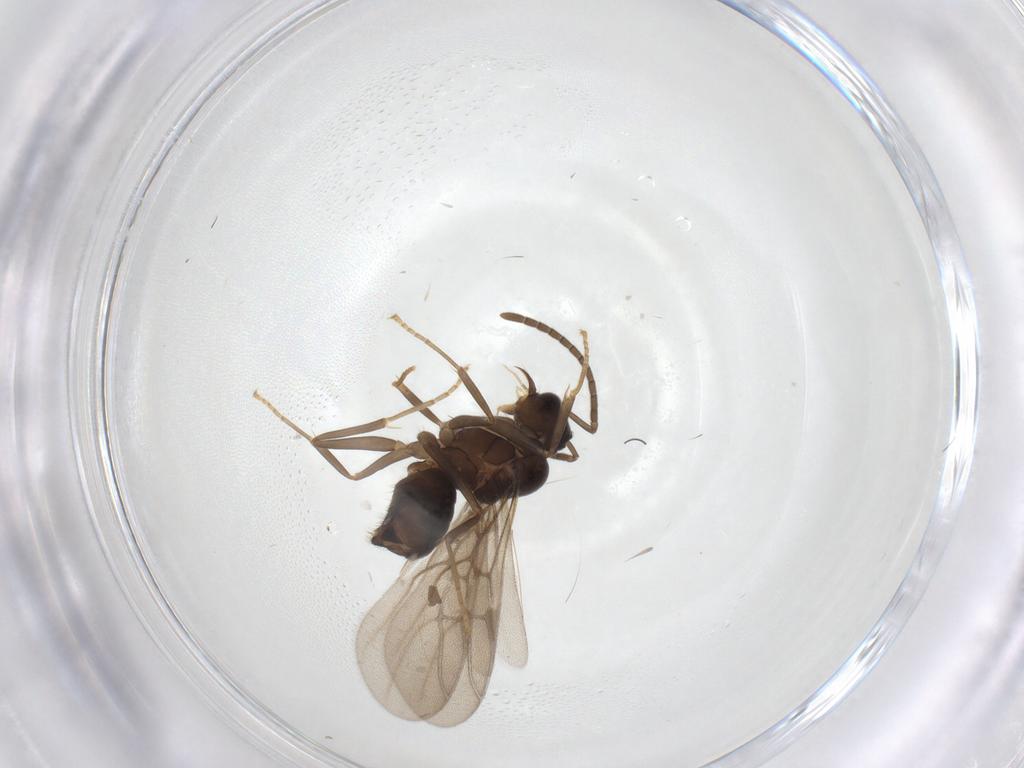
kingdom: Animalia
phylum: Arthropoda
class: Insecta
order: Hymenoptera
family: Formicidae
